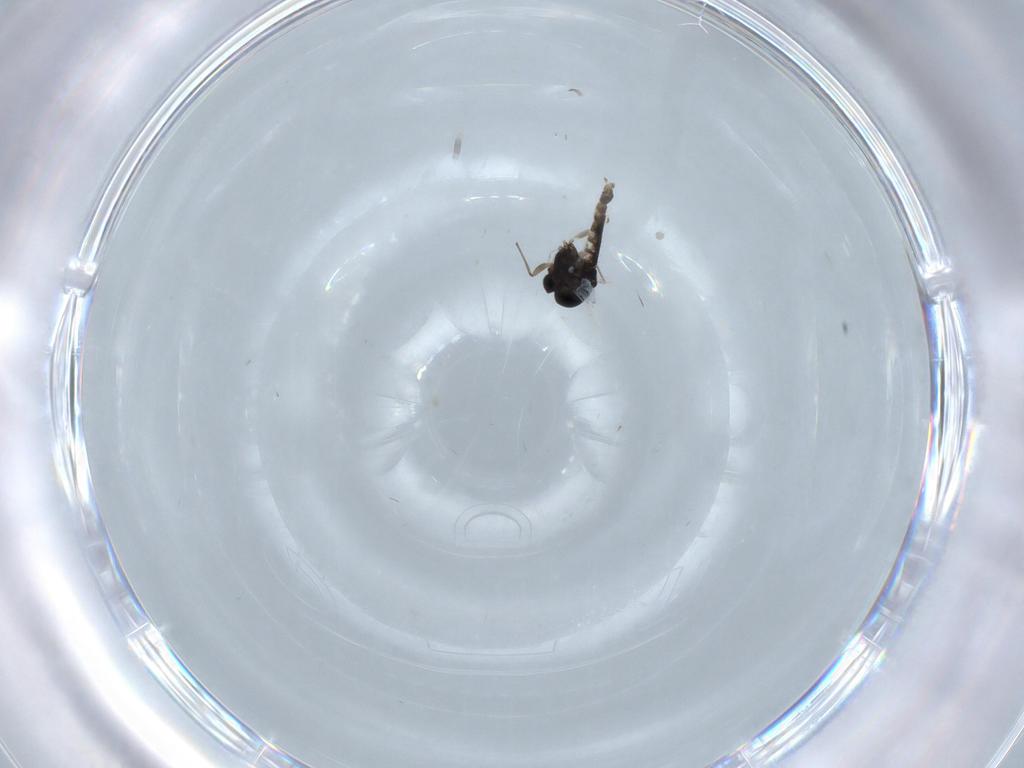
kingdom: Animalia
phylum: Arthropoda
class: Insecta
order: Diptera
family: Chironomidae
